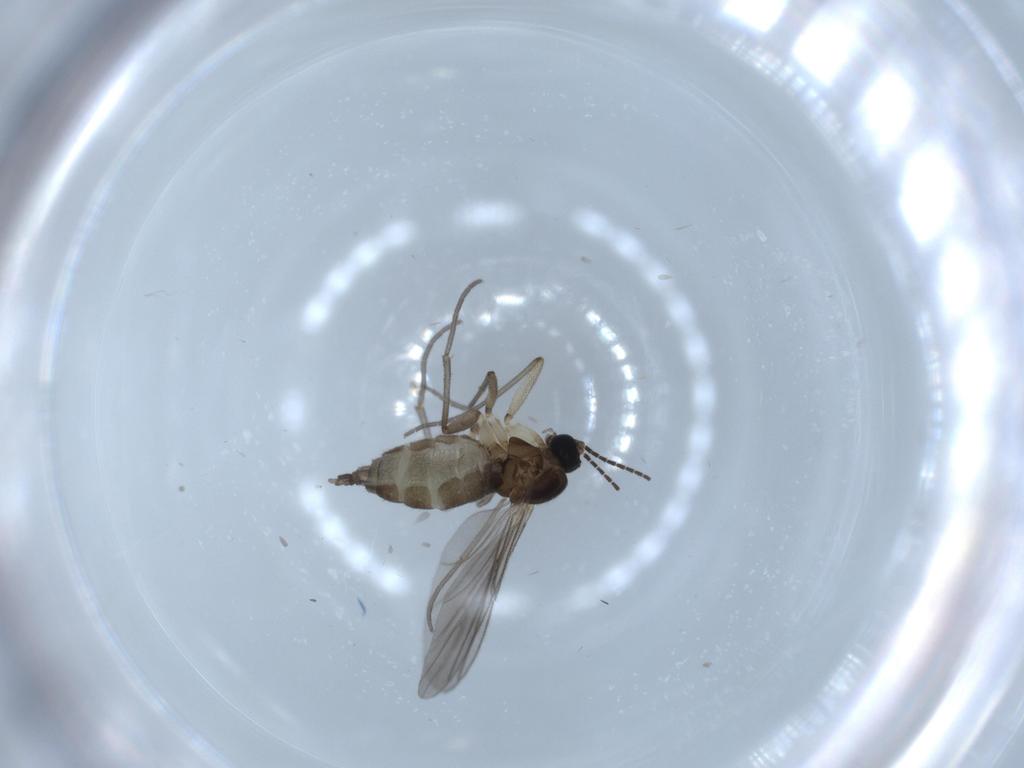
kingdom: Animalia
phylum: Arthropoda
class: Insecta
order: Diptera
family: Sciaridae
